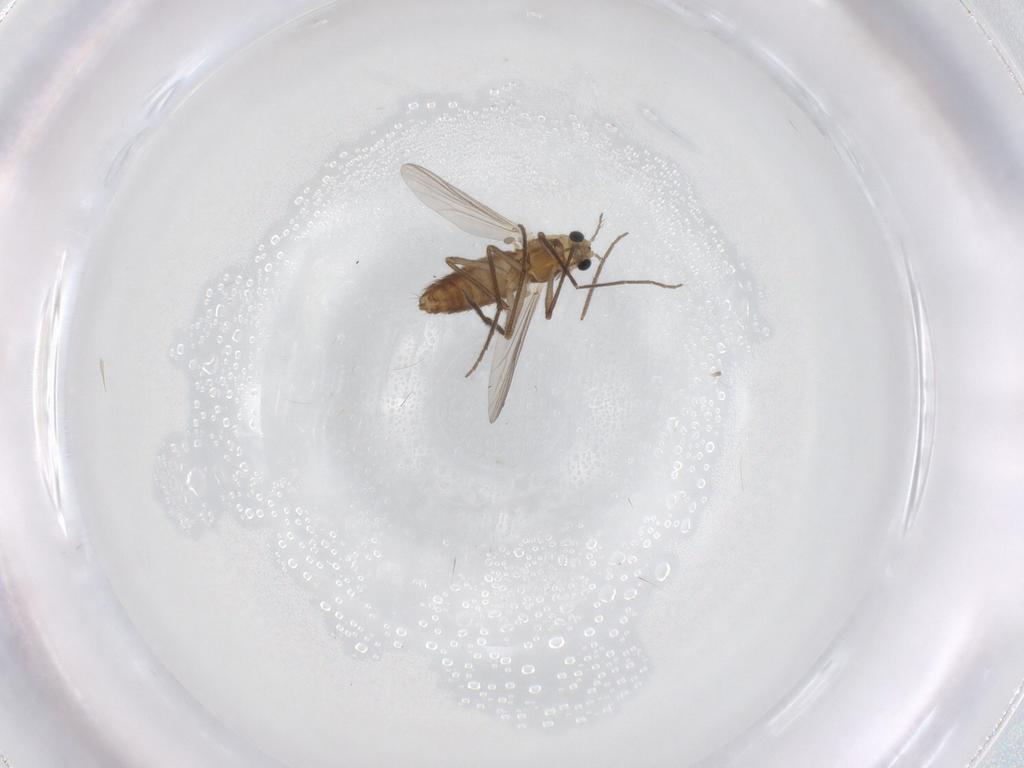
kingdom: Animalia
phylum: Arthropoda
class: Insecta
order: Diptera
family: Chironomidae
